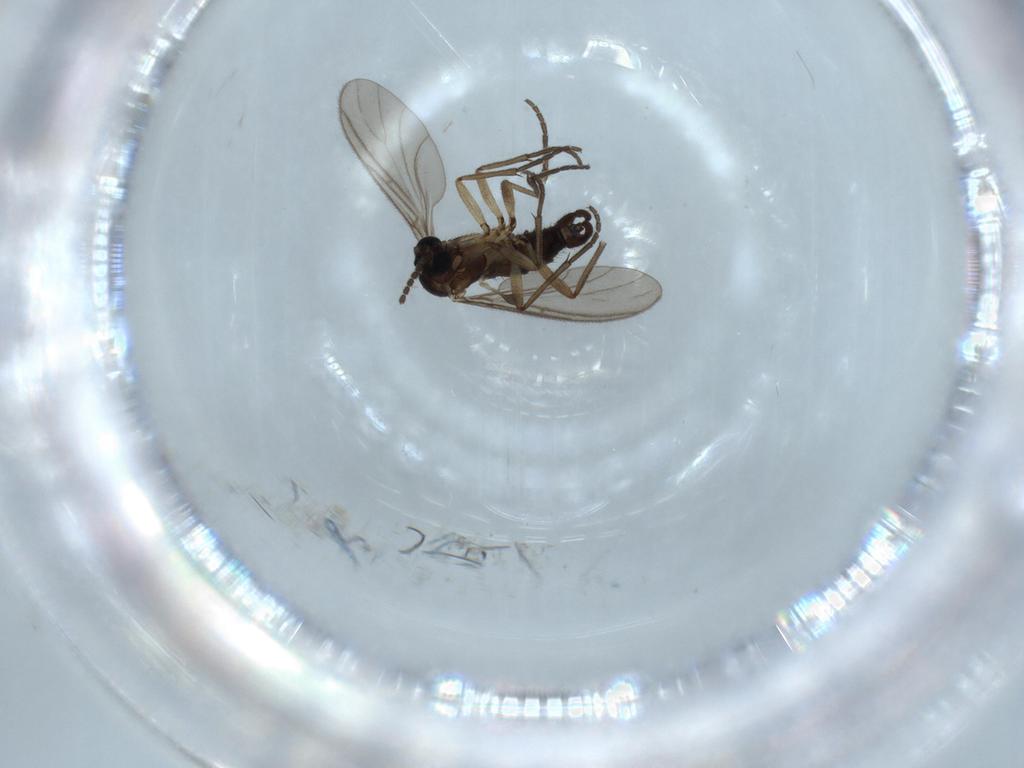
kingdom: Animalia
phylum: Arthropoda
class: Insecta
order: Diptera
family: Sciaridae
